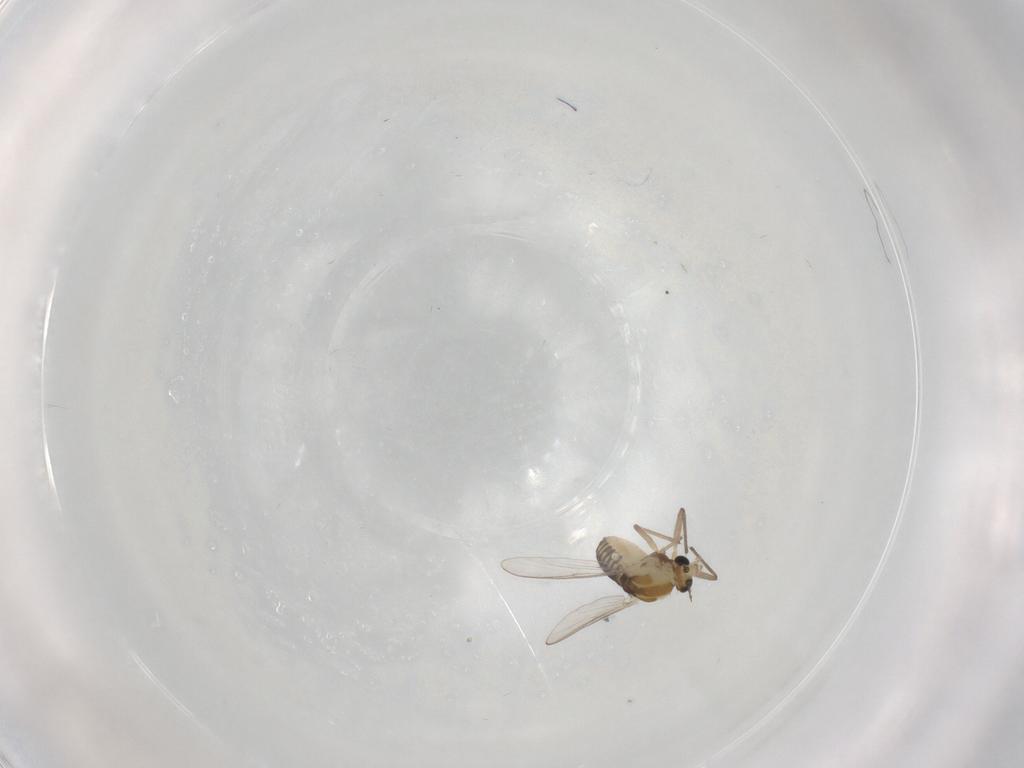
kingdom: Animalia
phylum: Arthropoda
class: Insecta
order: Diptera
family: Chironomidae
